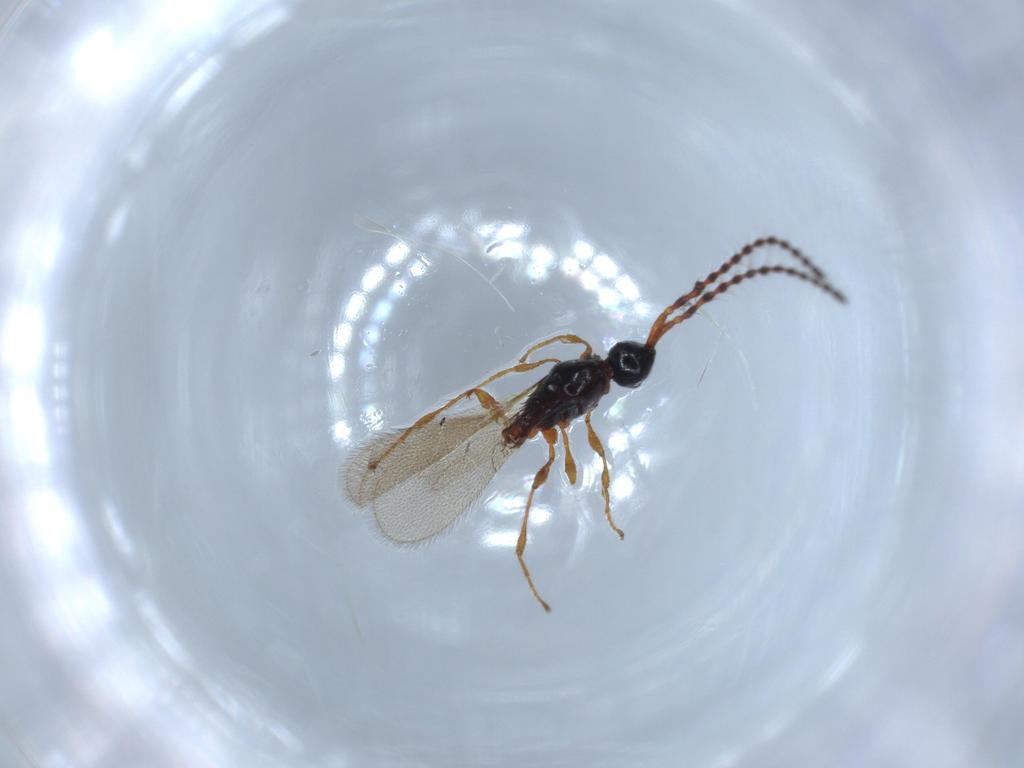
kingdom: Animalia
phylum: Arthropoda
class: Insecta
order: Hymenoptera
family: Diapriidae
